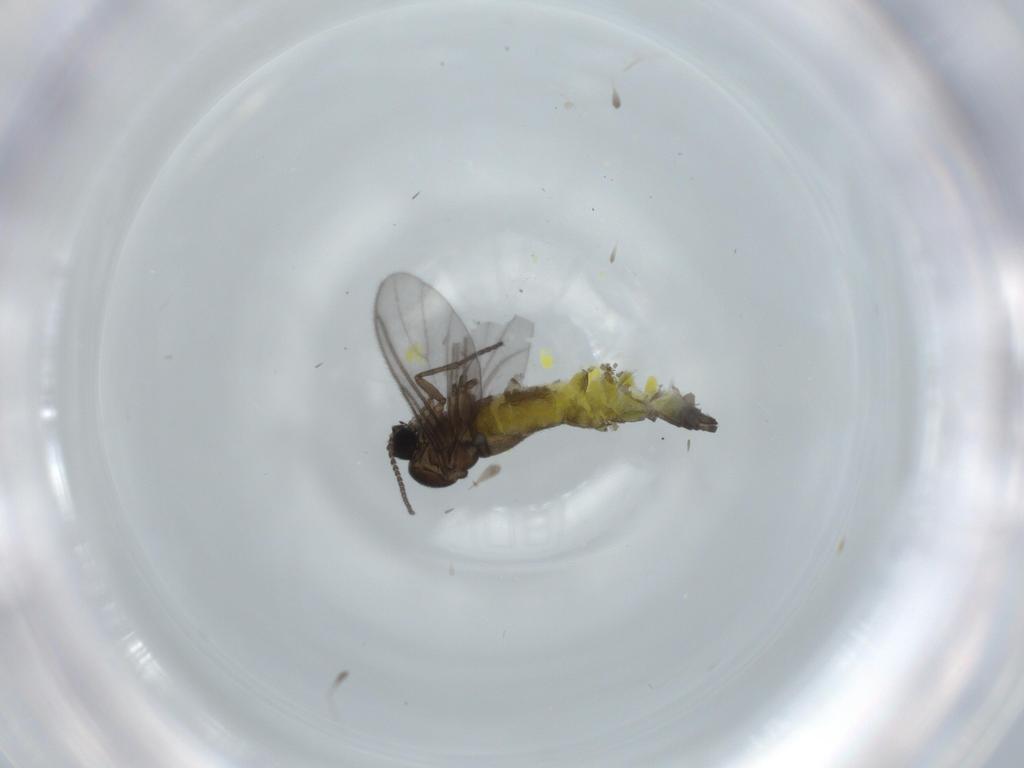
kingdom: Animalia
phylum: Arthropoda
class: Insecta
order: Diptera
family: Sciaridae
